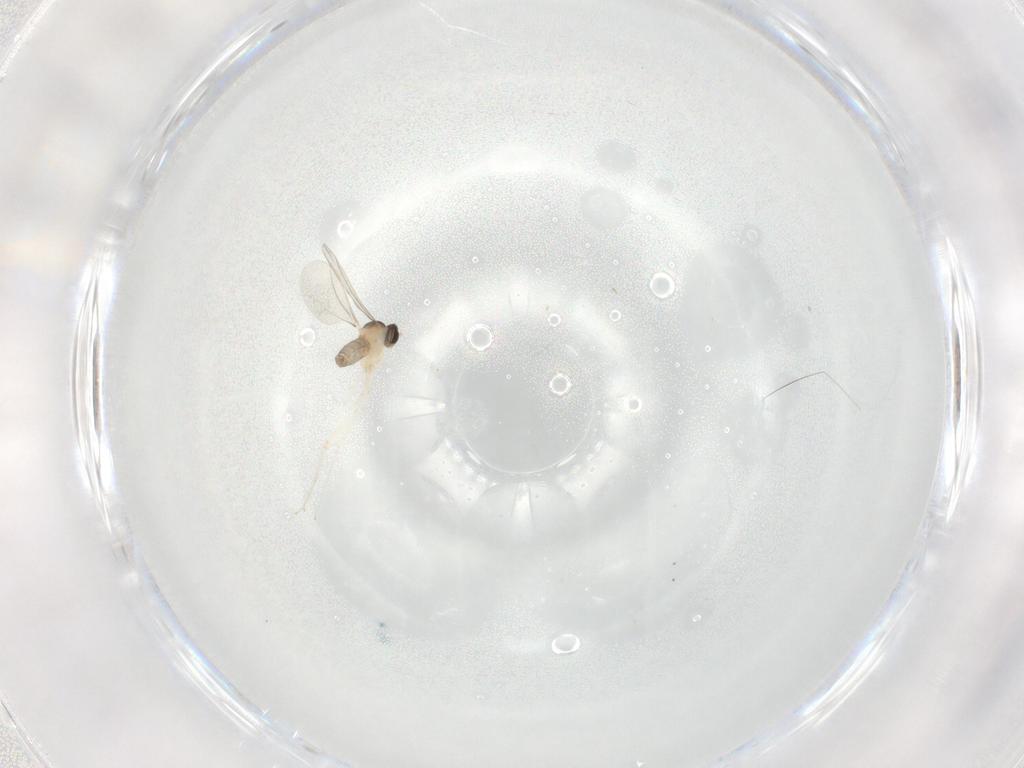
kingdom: Animalia
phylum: Arthropoda
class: Insecta
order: Diptera
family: Cecidomyiidae
